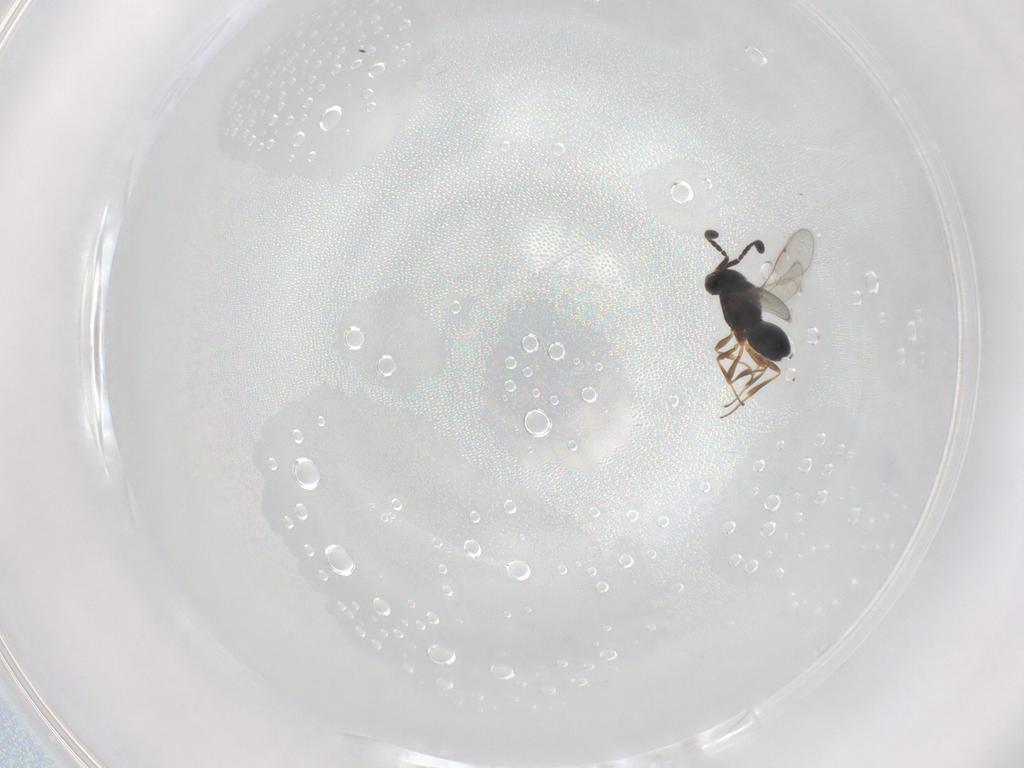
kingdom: Animalia
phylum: Arthropoda
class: Insecta
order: Hymenoptera
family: Scelionidae
